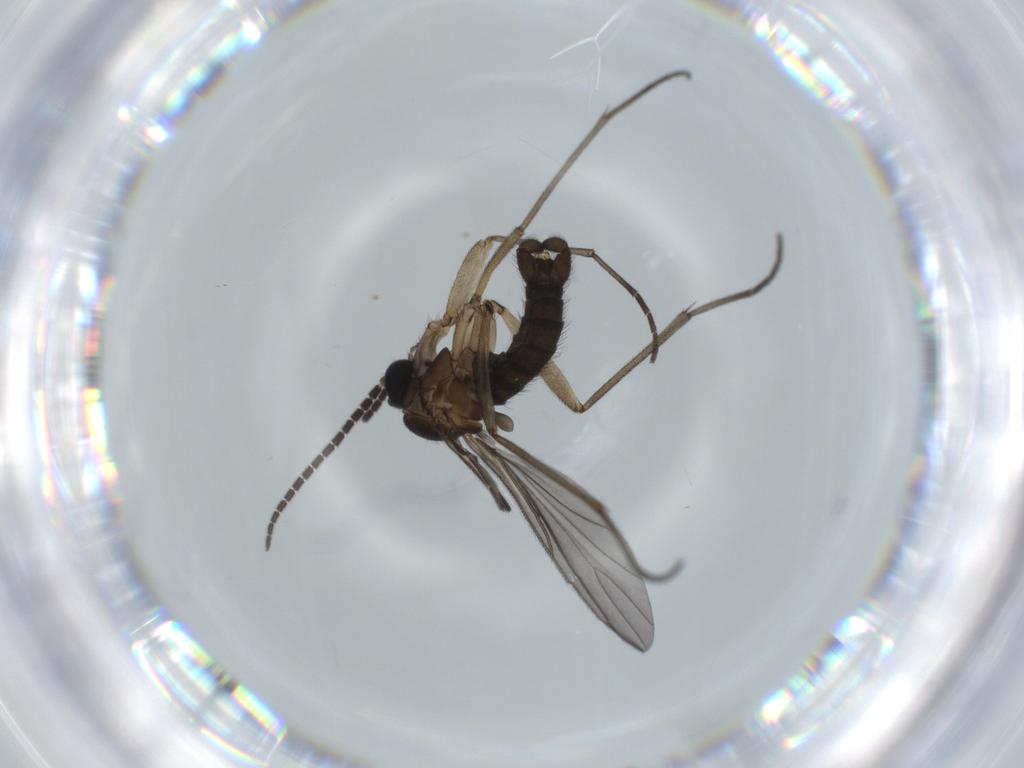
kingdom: Animalia
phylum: Arthropoda
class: Insecta
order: Diptera
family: Sciaridae
